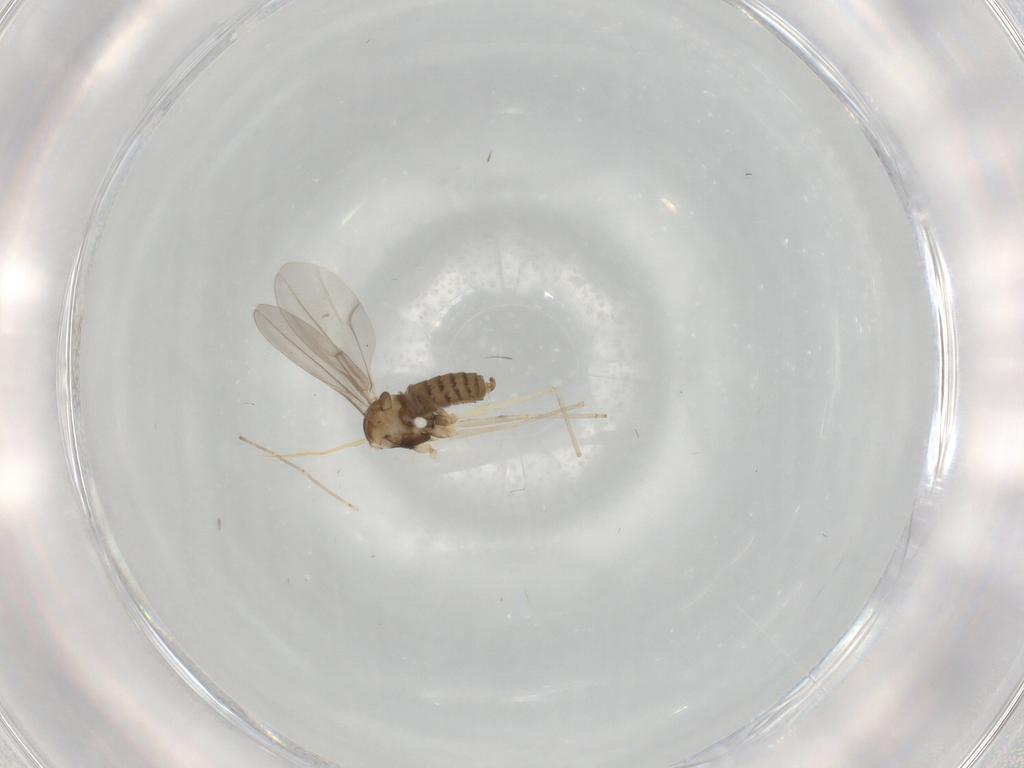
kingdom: Animalia
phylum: Arthropoda
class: Insecta
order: Diptera
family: Cecidomyiidae
